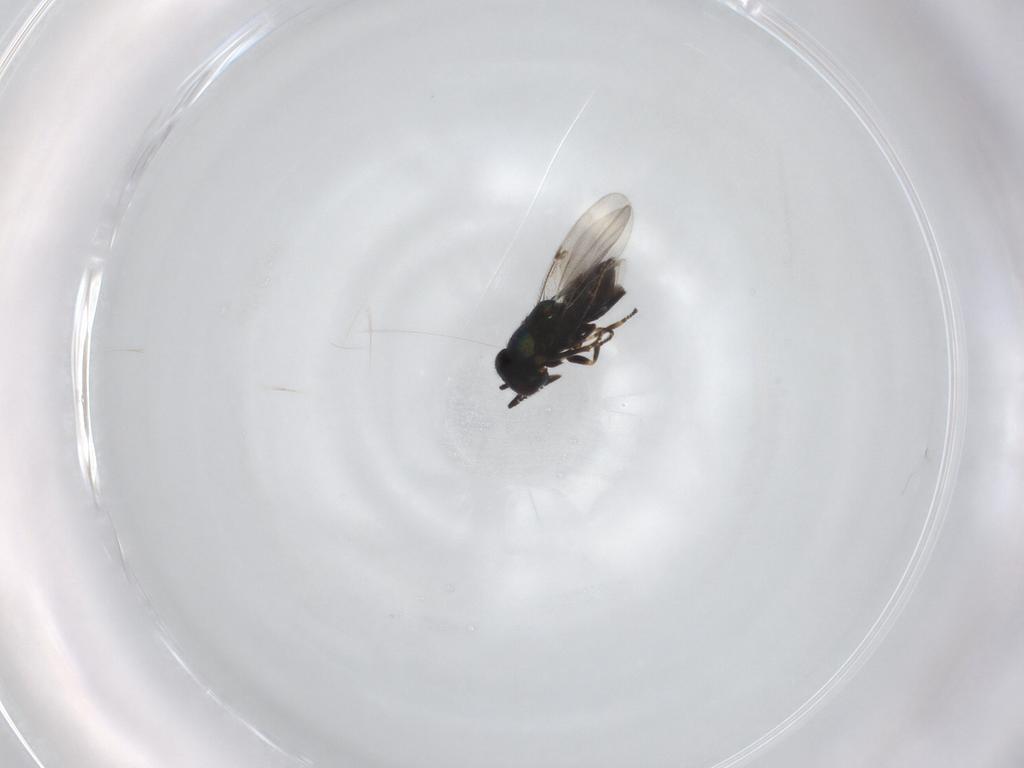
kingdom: Animalia
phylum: Arthropoda
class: Insecta
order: Hymenoptera
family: Encyrtidae
